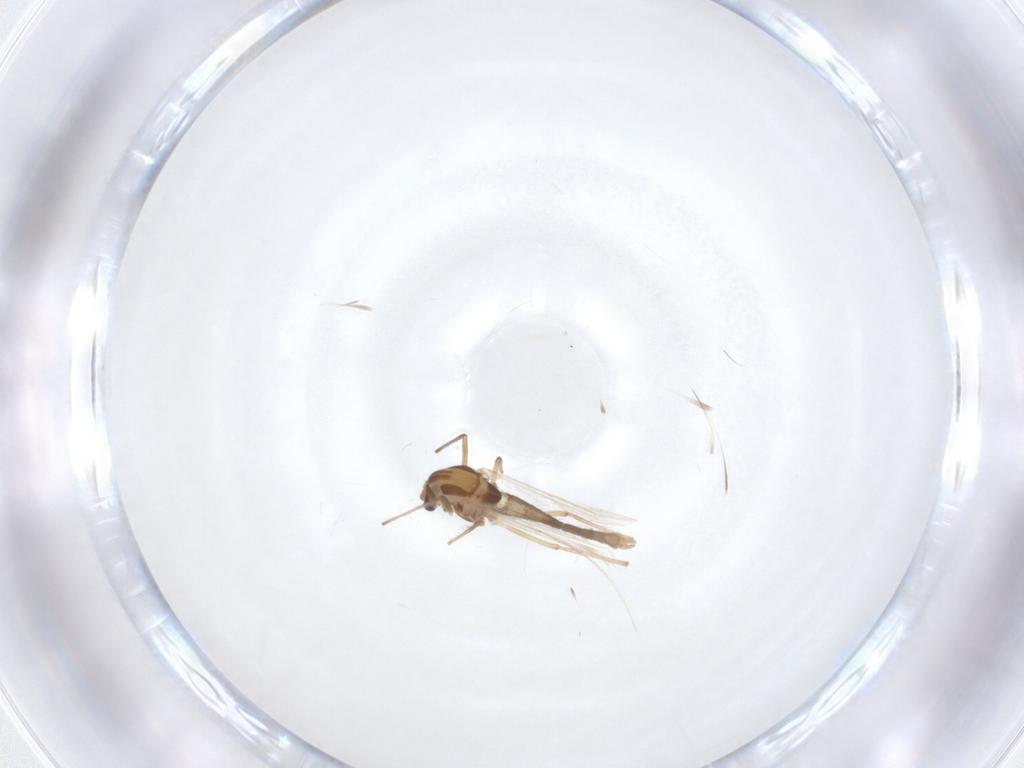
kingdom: Animalia
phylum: Arthropoda
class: Insecta
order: Diptera
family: Chironomidae
